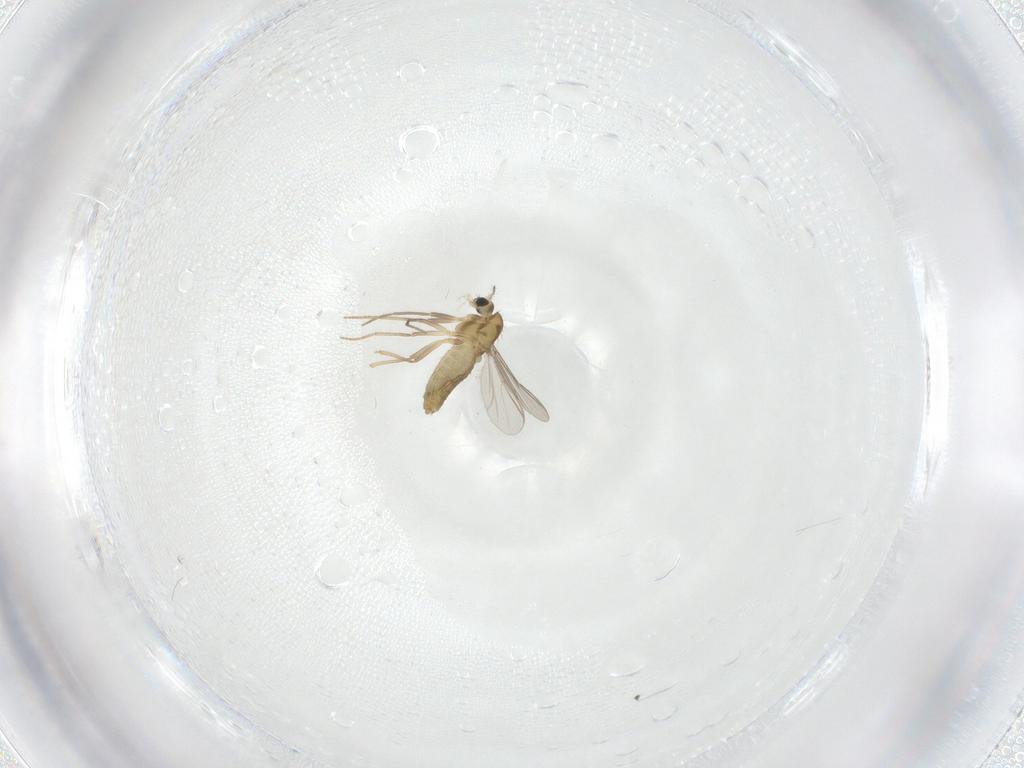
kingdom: Animalia
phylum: Arthropoda
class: Insecta
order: Diptera
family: Chironomidae
